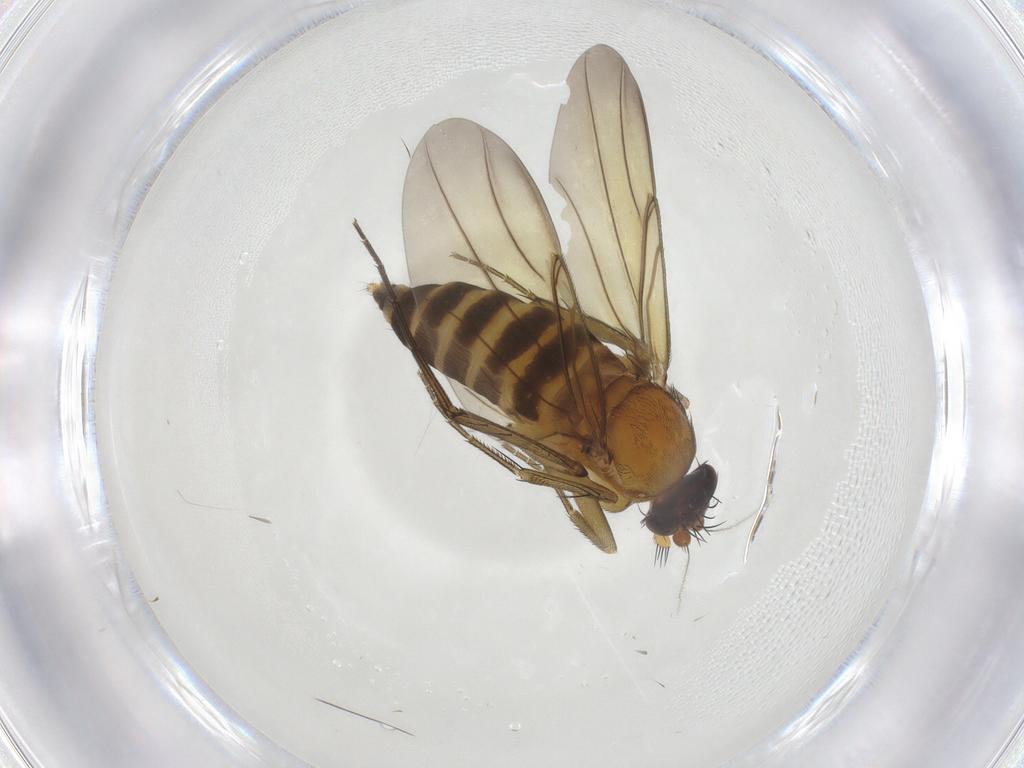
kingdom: Animalia
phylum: Arthropoda
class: Insecta
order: Diptera
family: Phoridae
